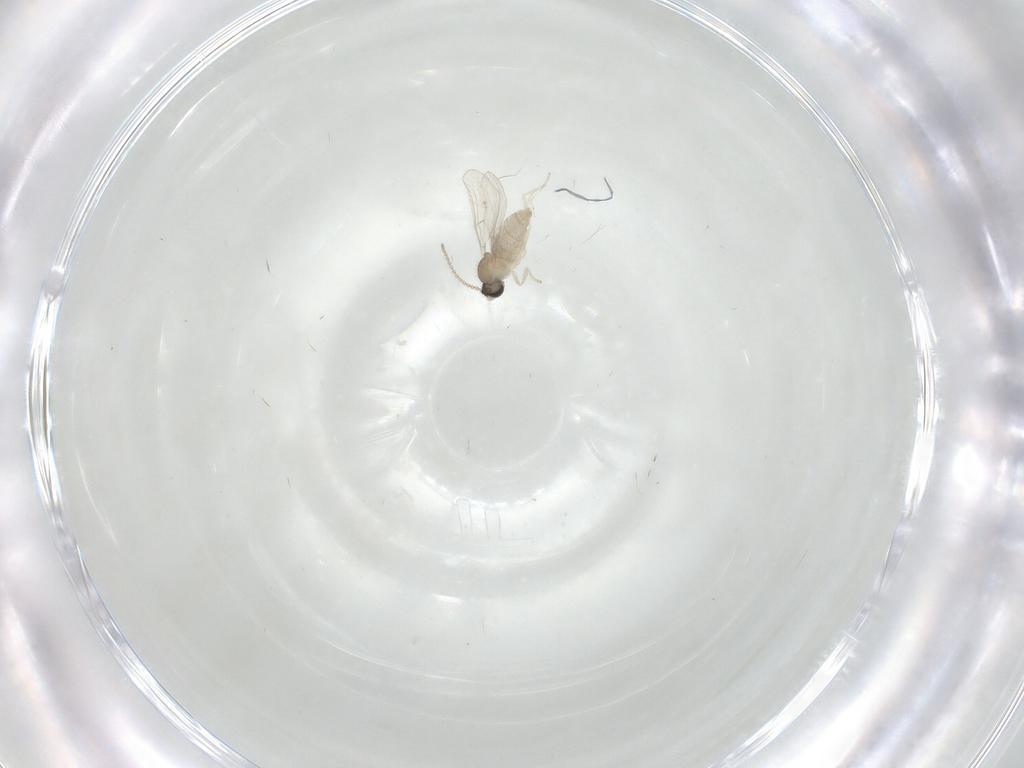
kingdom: Animalia
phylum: Arthropoda
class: Insecta
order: Diptera
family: Cecidomyiidae
